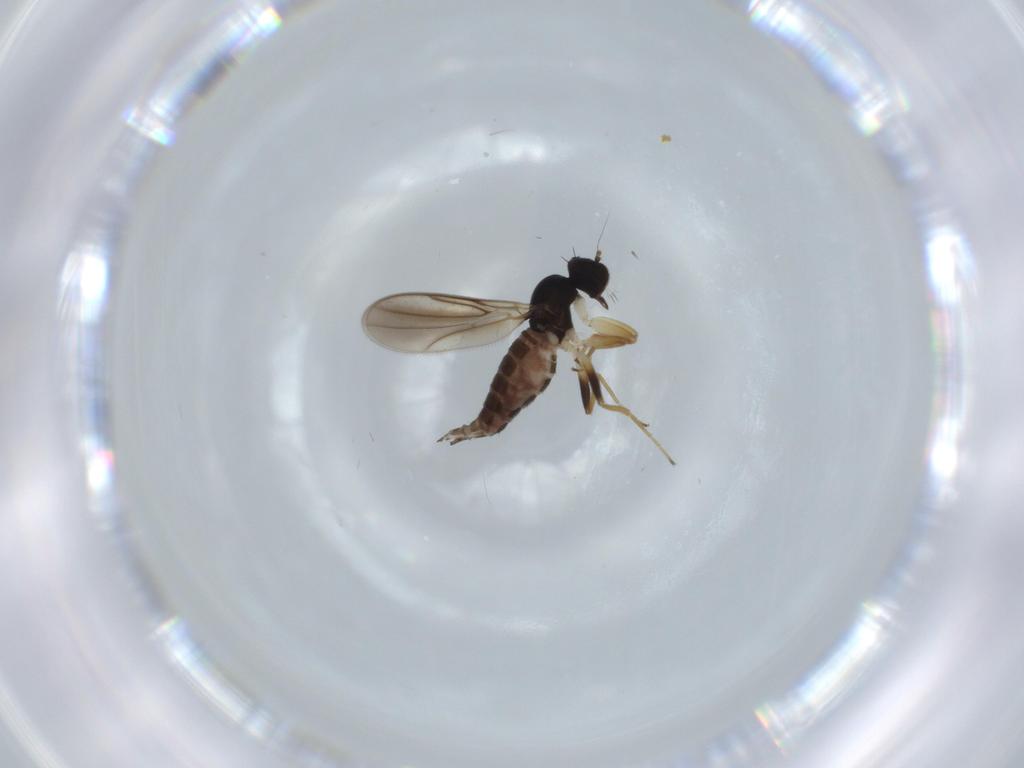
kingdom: Animalia
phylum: Arthropoda
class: Insecta
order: Diptera
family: Hybotidae
